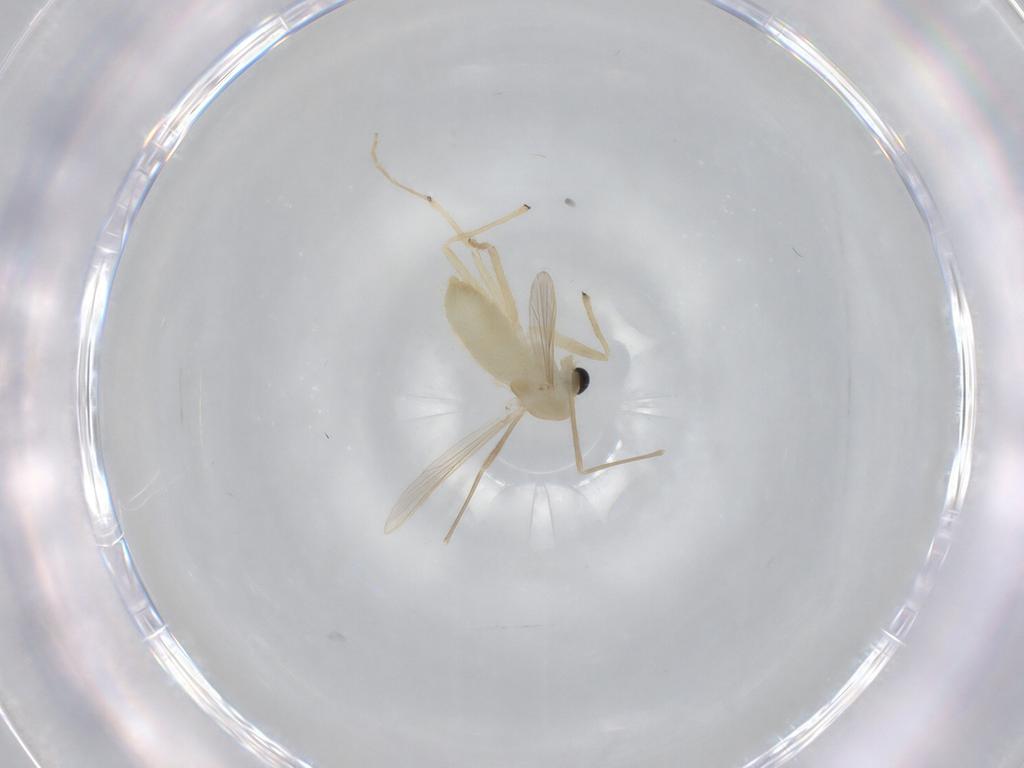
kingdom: Animalia
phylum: Arthropoda
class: Insecta
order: Diptera
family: Chironomidae
